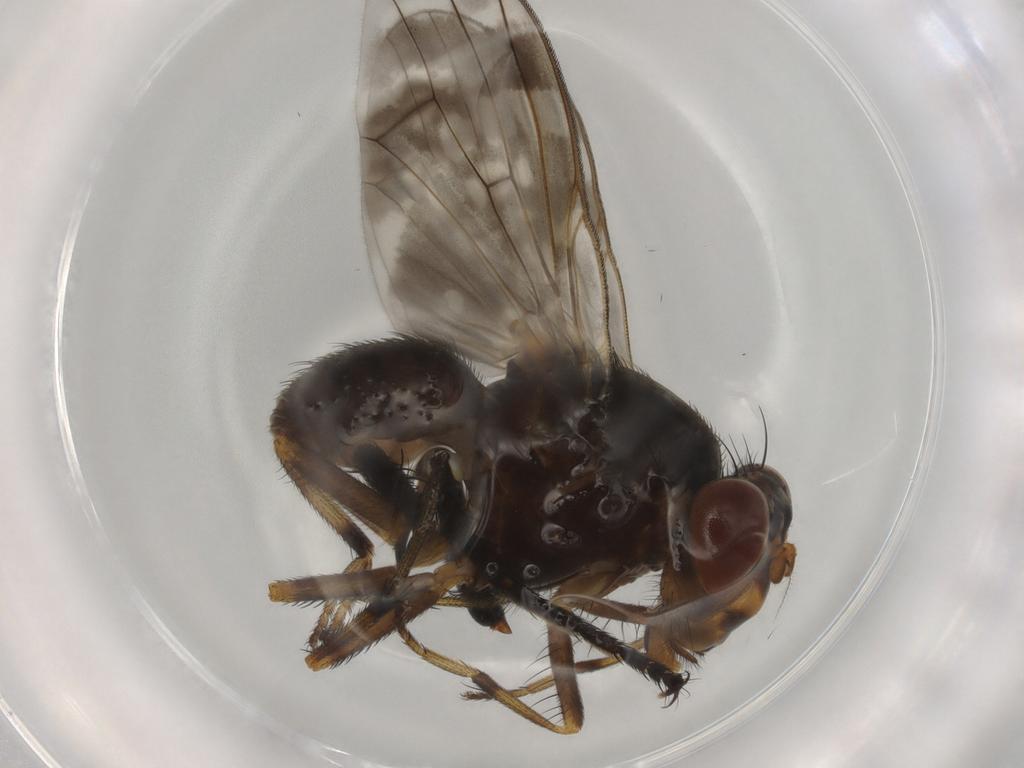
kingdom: Animalia
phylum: Arthropoda
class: Insecta
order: Diptera
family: Anthomyiidae
